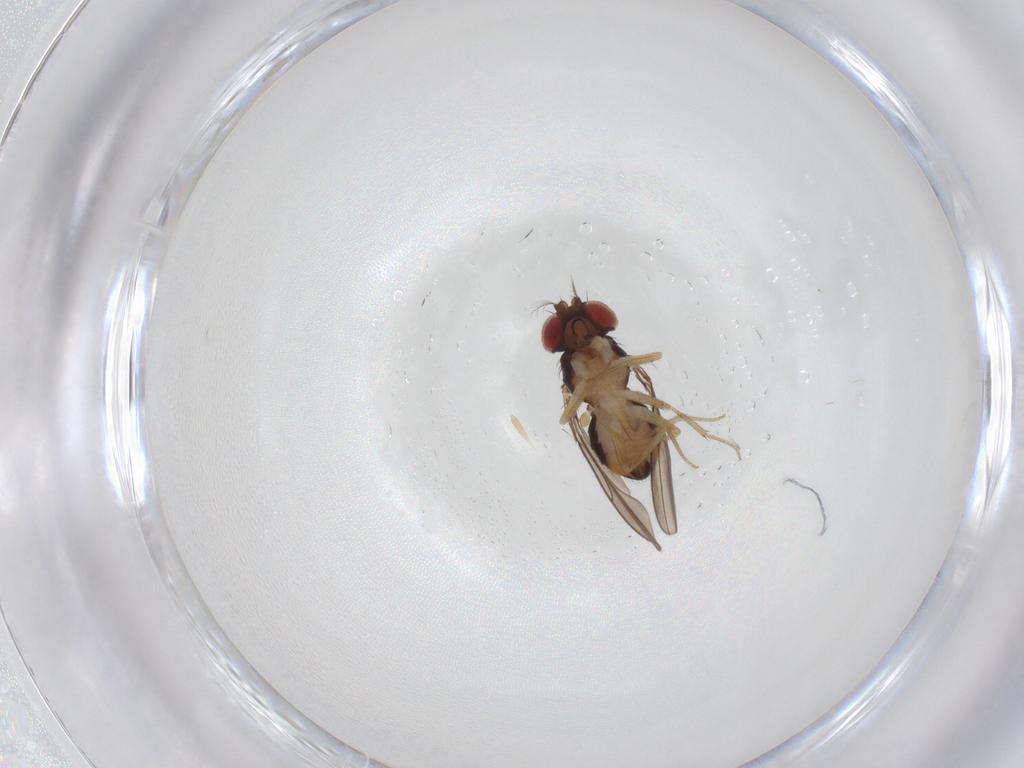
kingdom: Animalia
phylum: Arthropoda
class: Insecta
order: Diptera
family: Drosophilidae
